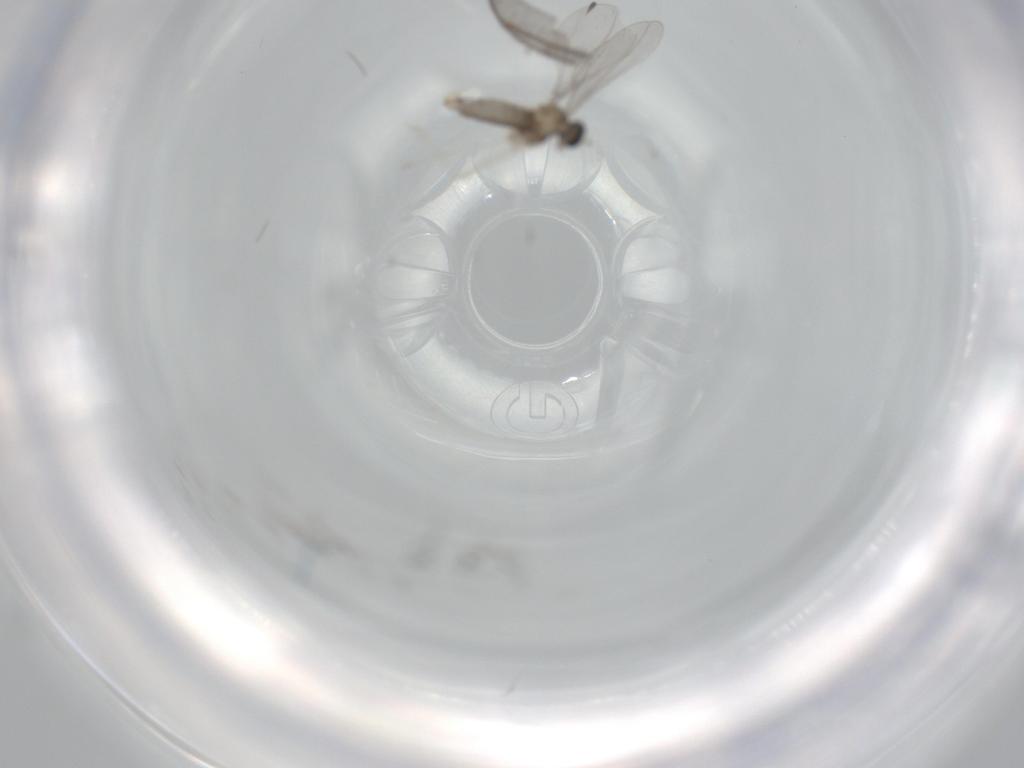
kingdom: Animalia
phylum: Arthropoda
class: Insecta
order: Diptera
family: Cecidomyiidae
